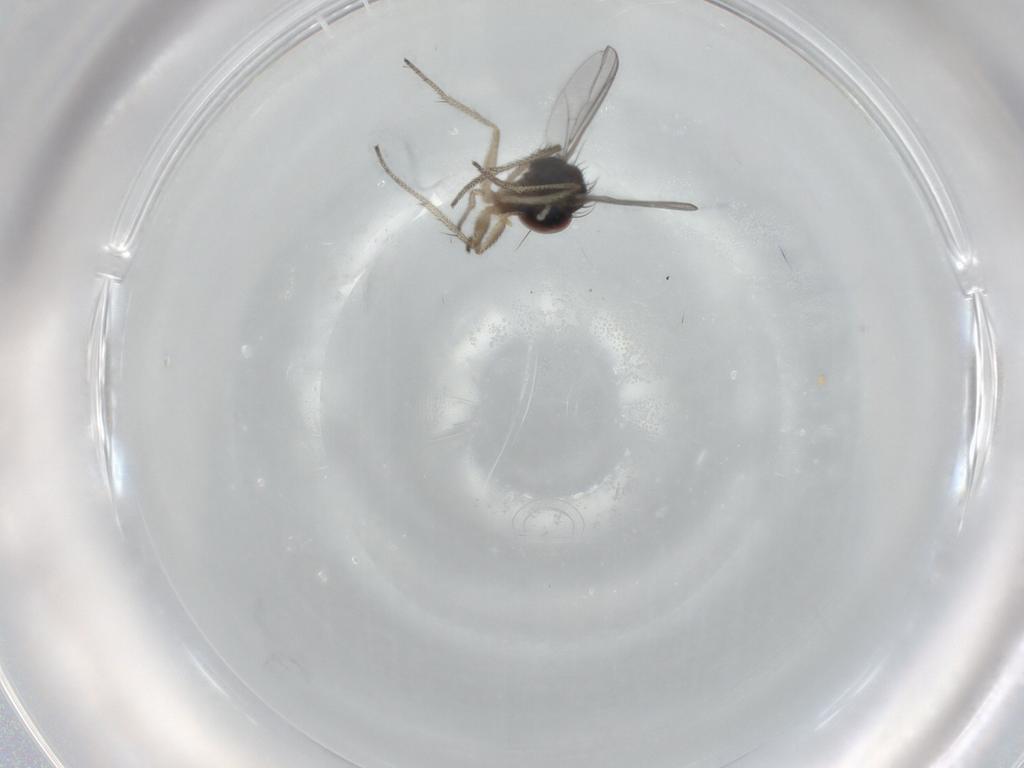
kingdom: Animalia
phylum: Arthropoda
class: Insecta
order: Diptera
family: Dolichopodidae
